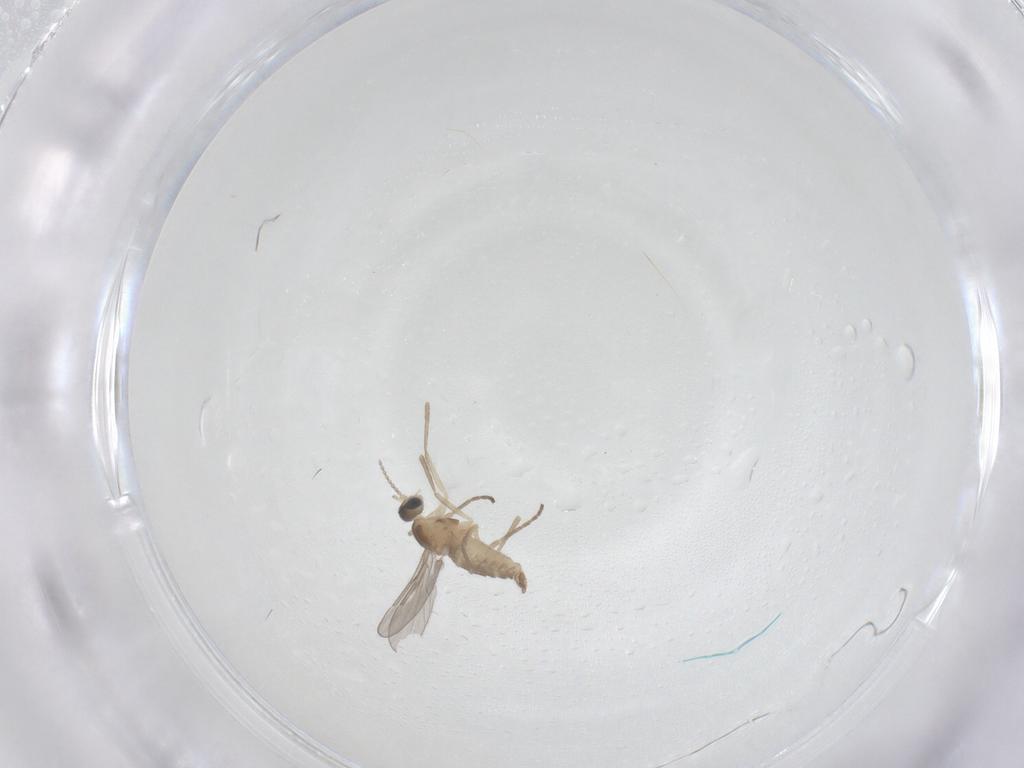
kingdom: Animalia
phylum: Arthropoda
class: Insecta
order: Diptera
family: Cecidomyiidae
